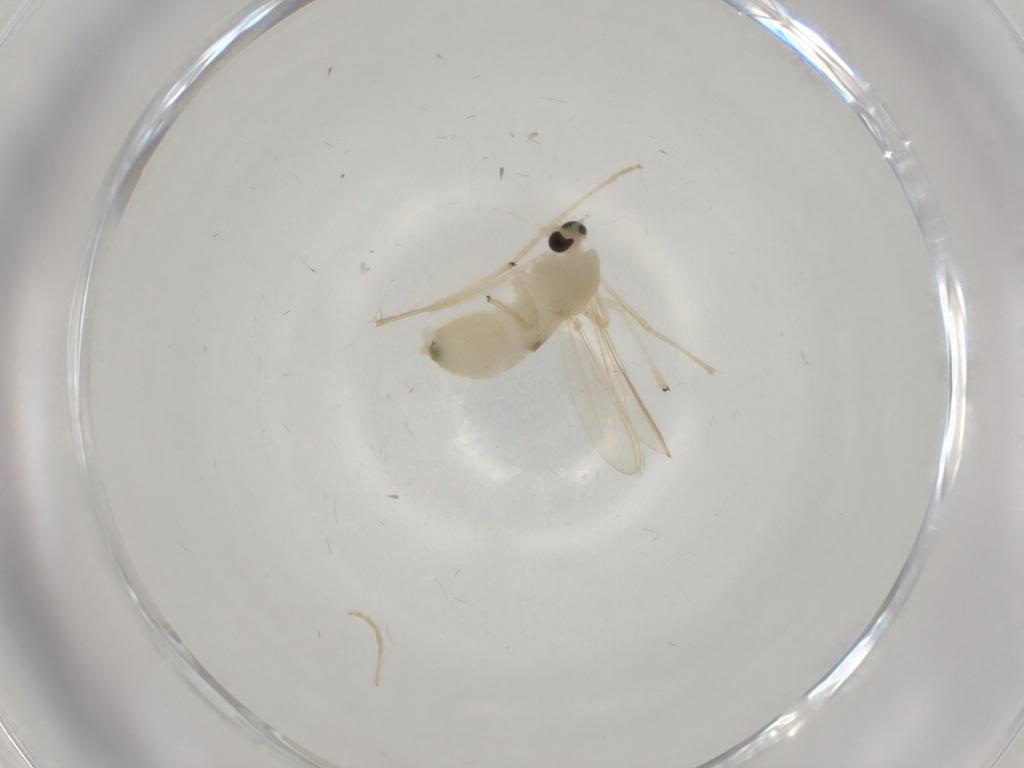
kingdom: Animalia
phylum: Arthropoda
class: Insecta
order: Diptera
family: Chironomidae
